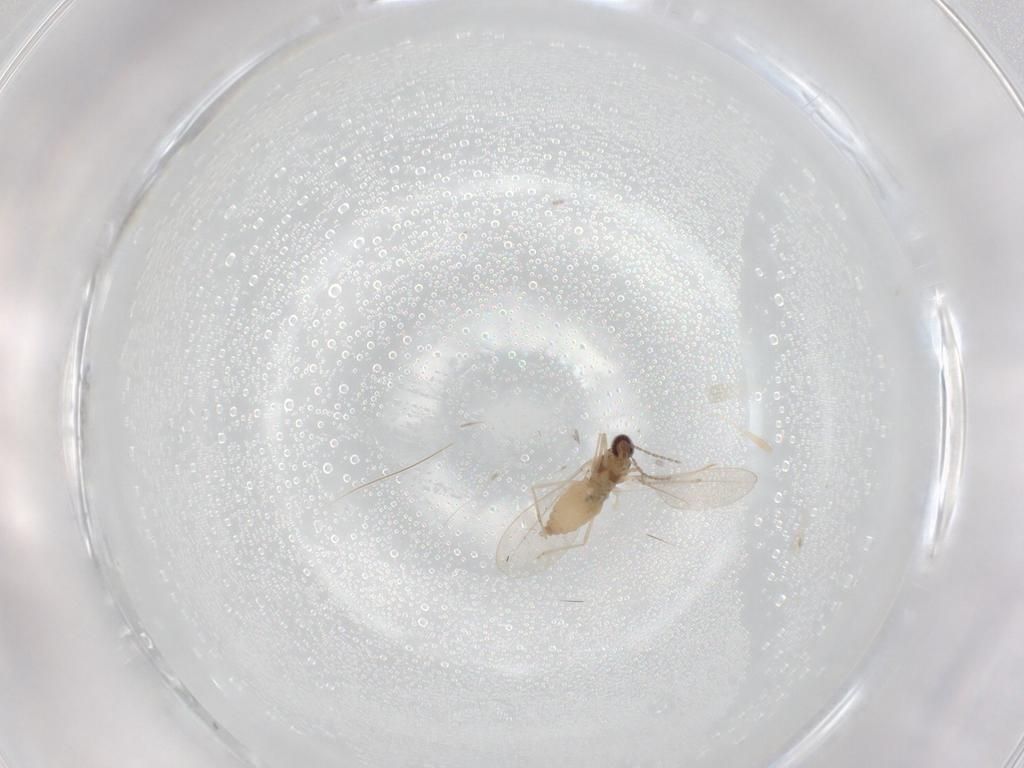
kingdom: Animalia
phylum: Arthropoda
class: Insecta
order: Diptera
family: Cecidomyiidae
